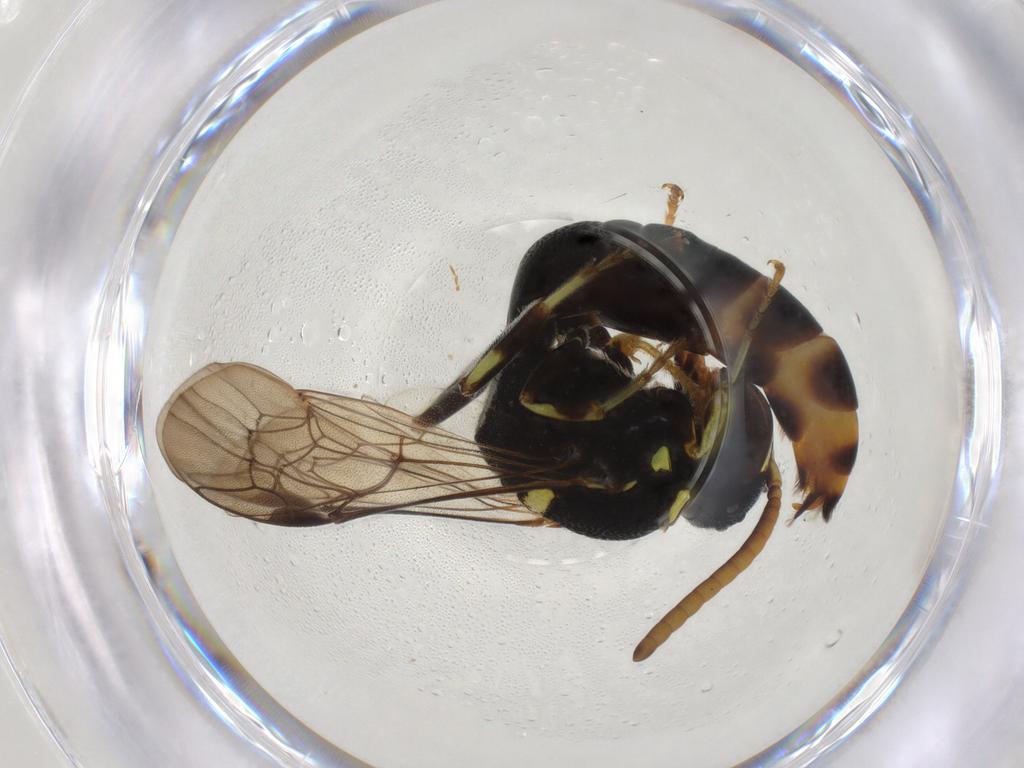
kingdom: Animalia
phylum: Arthropoda
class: Insecta
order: Hymenoptera
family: Colletidae
